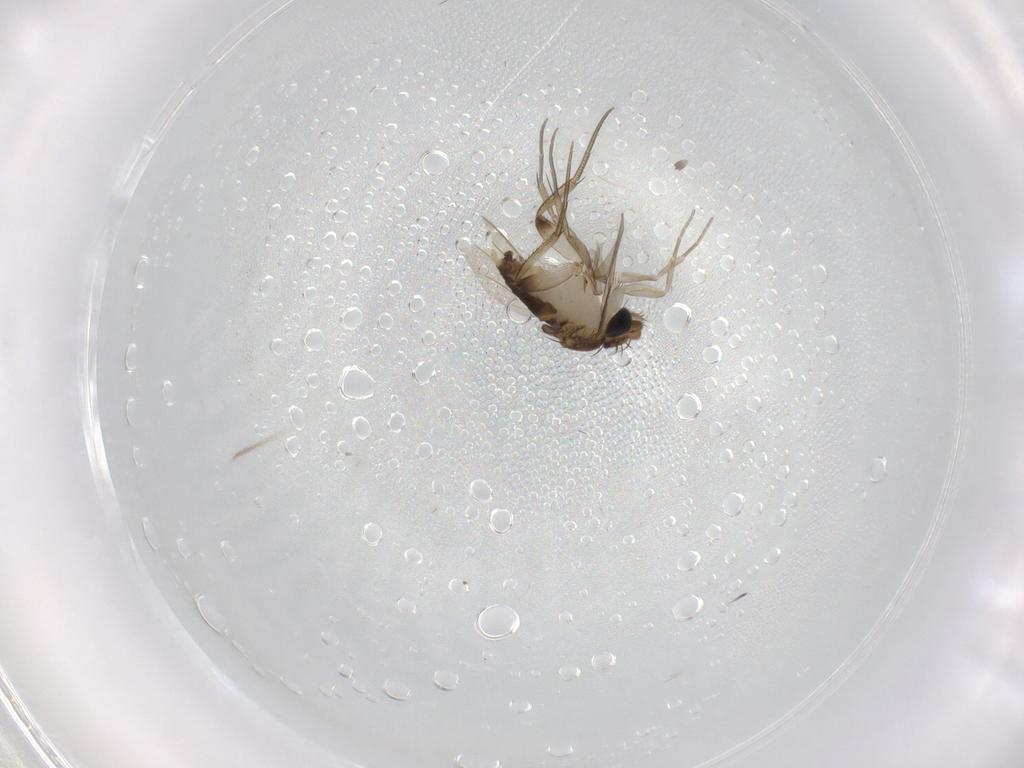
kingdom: Animalia
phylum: Arthropoda
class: Insecta
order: Diptera
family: Phoridae
